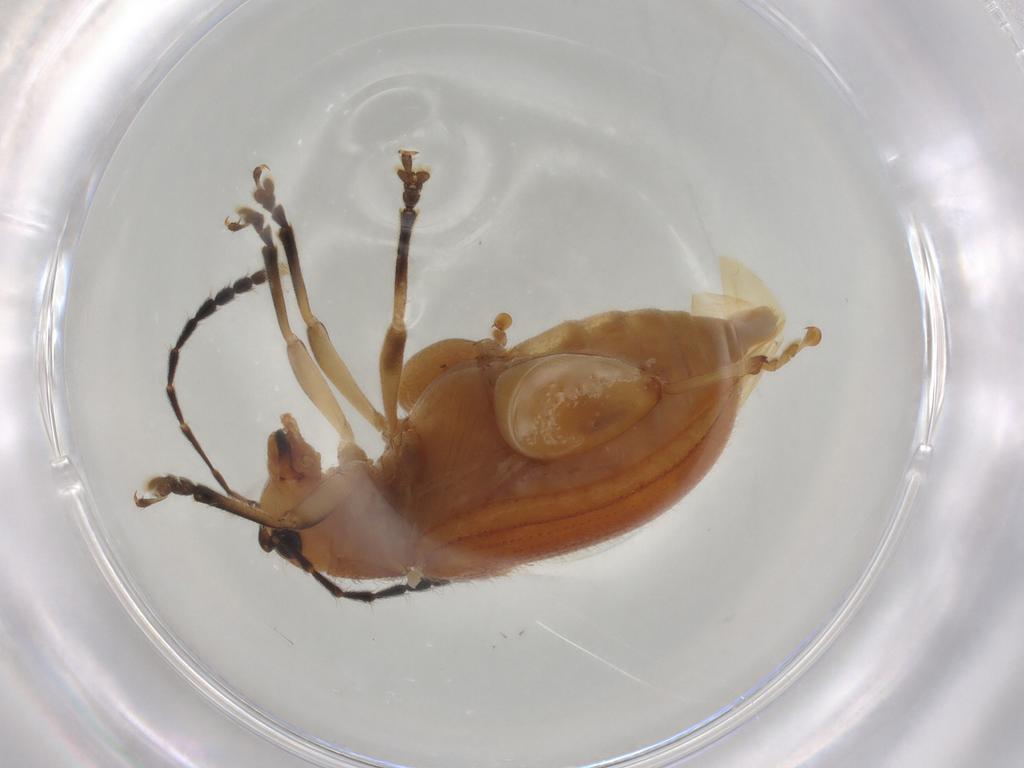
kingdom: Animalia
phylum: Arthropoda
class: Insecta
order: Coleoptera
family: Chrysomelidae
